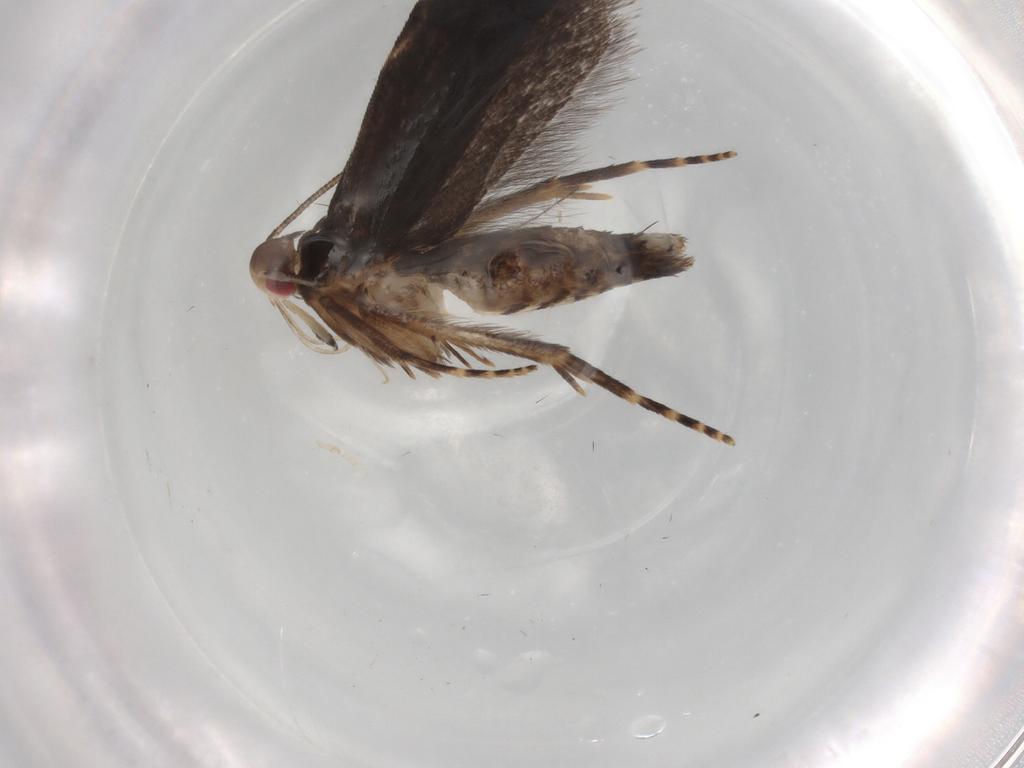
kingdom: Animalia
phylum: Arthropoda
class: Insecta
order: Lepidoptera
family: Gelechiidae
